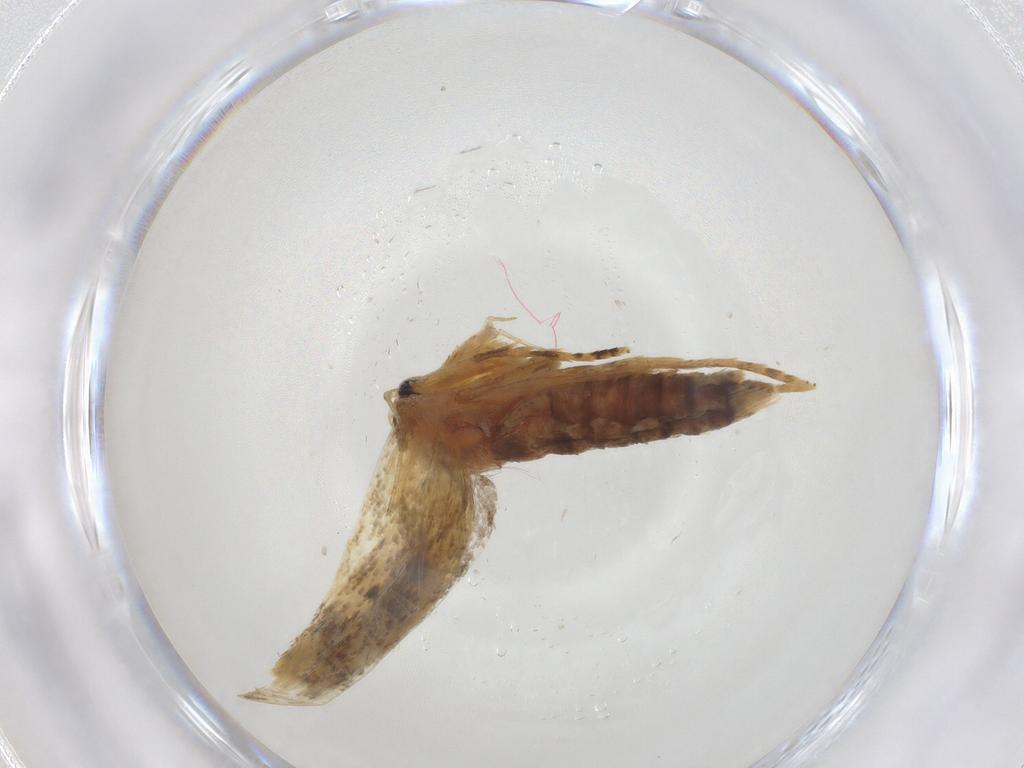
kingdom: Animalia
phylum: Arthropoda
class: Insecta
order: Lepidoptera
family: Autostichidae
